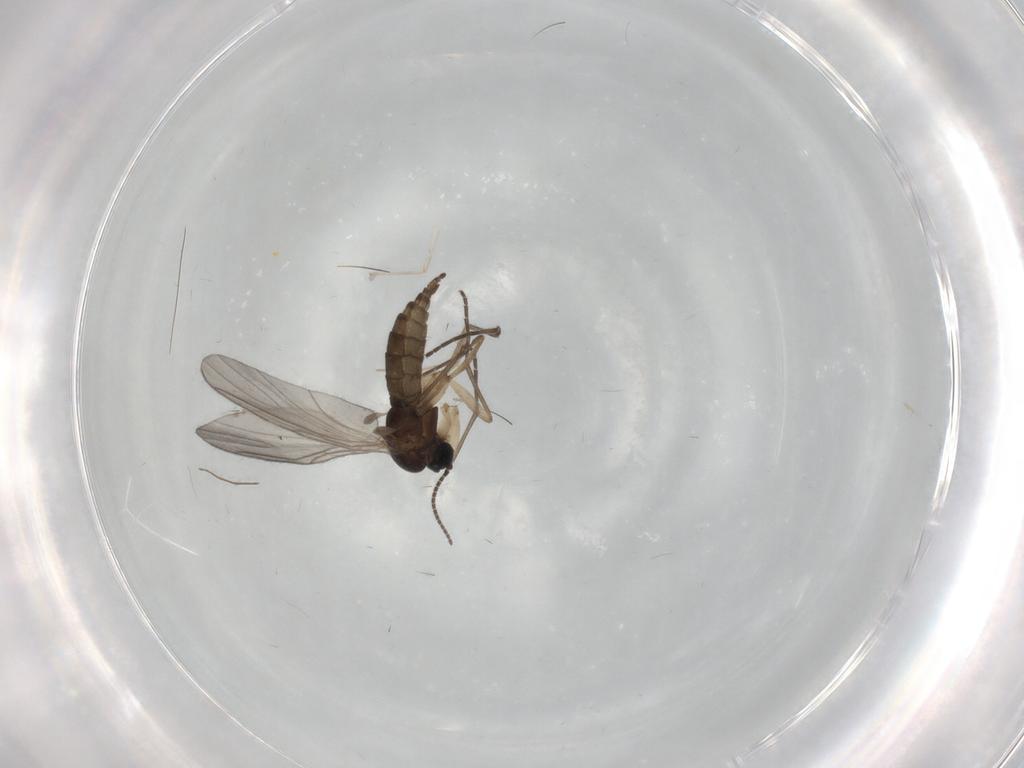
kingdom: Animalia
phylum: Arthropoda
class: Insecta
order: Diptera
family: Sciaridae
